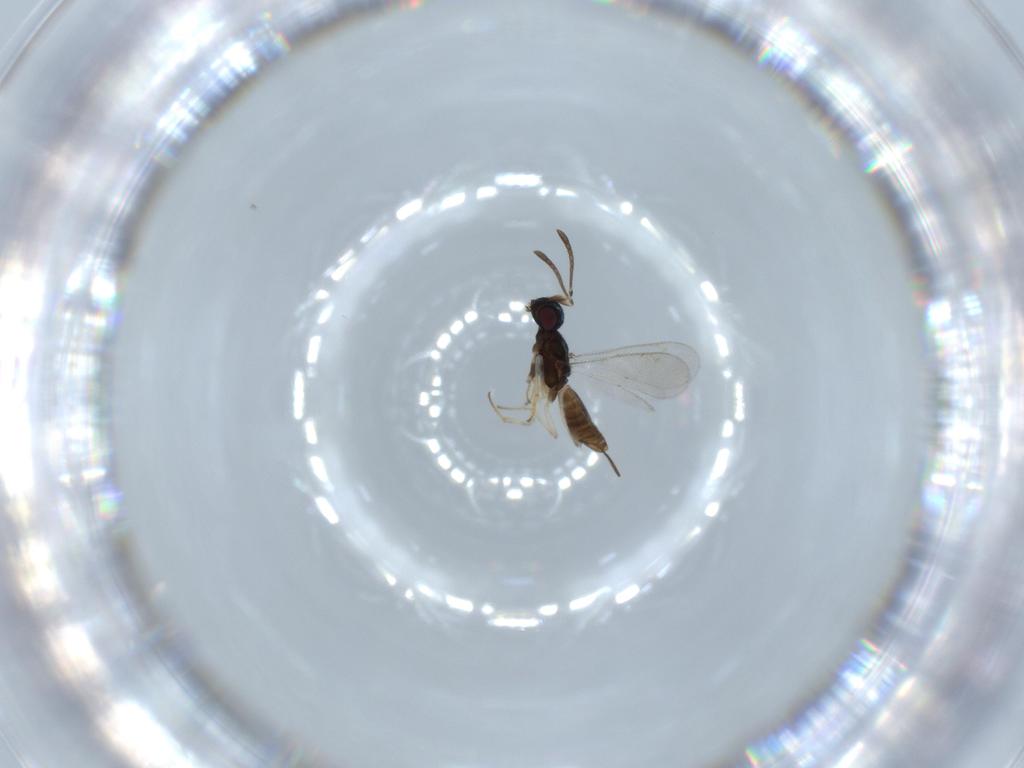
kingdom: Animalia
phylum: Arthropoda
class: Insecta
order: Hymenoptera
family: Eupelmidae
